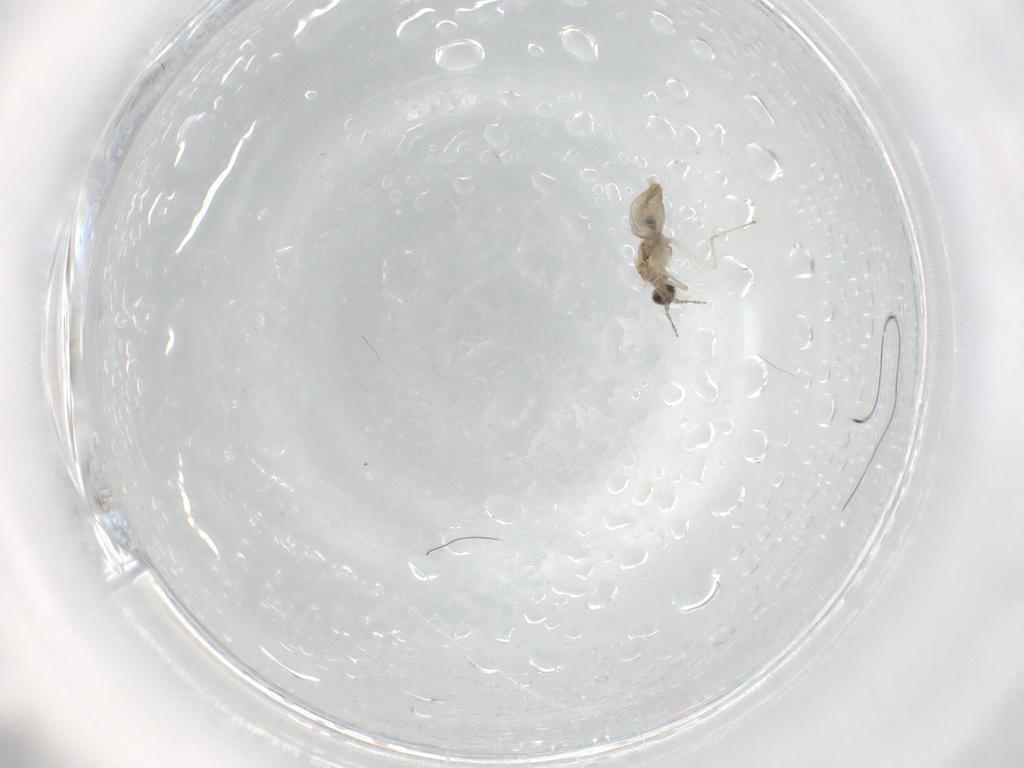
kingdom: Animalia
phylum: Arthropoda
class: Insecta
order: Diptera
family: Cecidomyiidae
